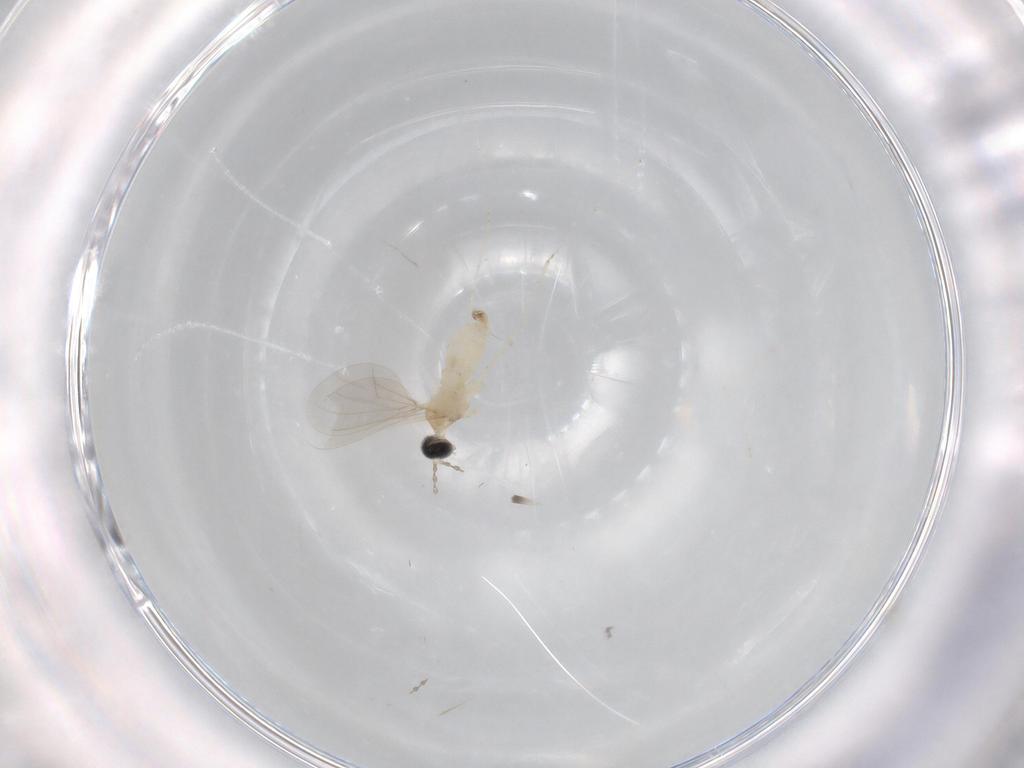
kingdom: Animalia
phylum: Arthropoda
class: Insecta
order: Diptera
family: Cecidomyiidae
